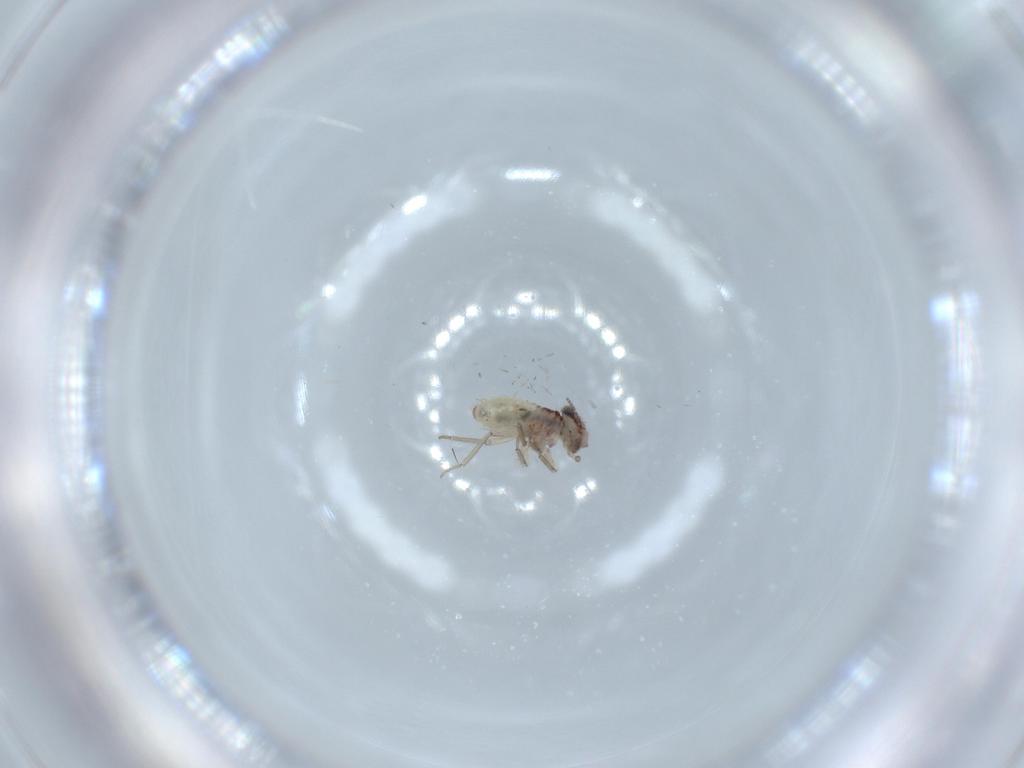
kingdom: Animalia
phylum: Arthropoda
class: Insecta
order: Psocodea
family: Lepidopsocidae
